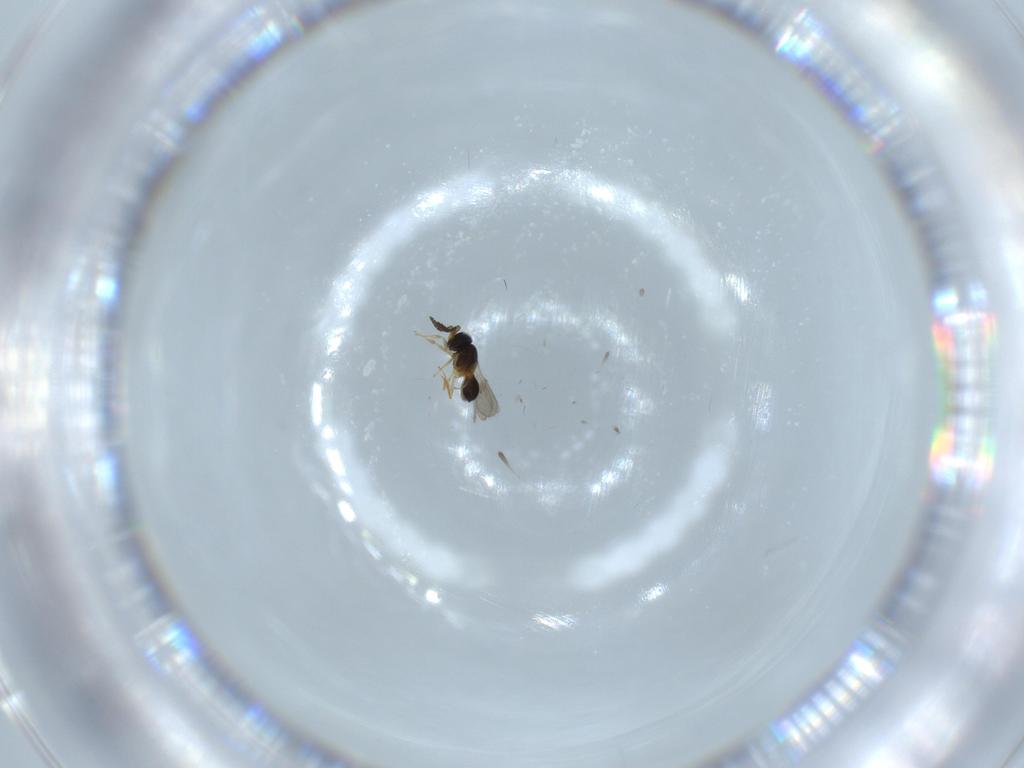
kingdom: Animalia
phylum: Arthropoda
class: Insecta
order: Hymenoptera
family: Scelionidae
